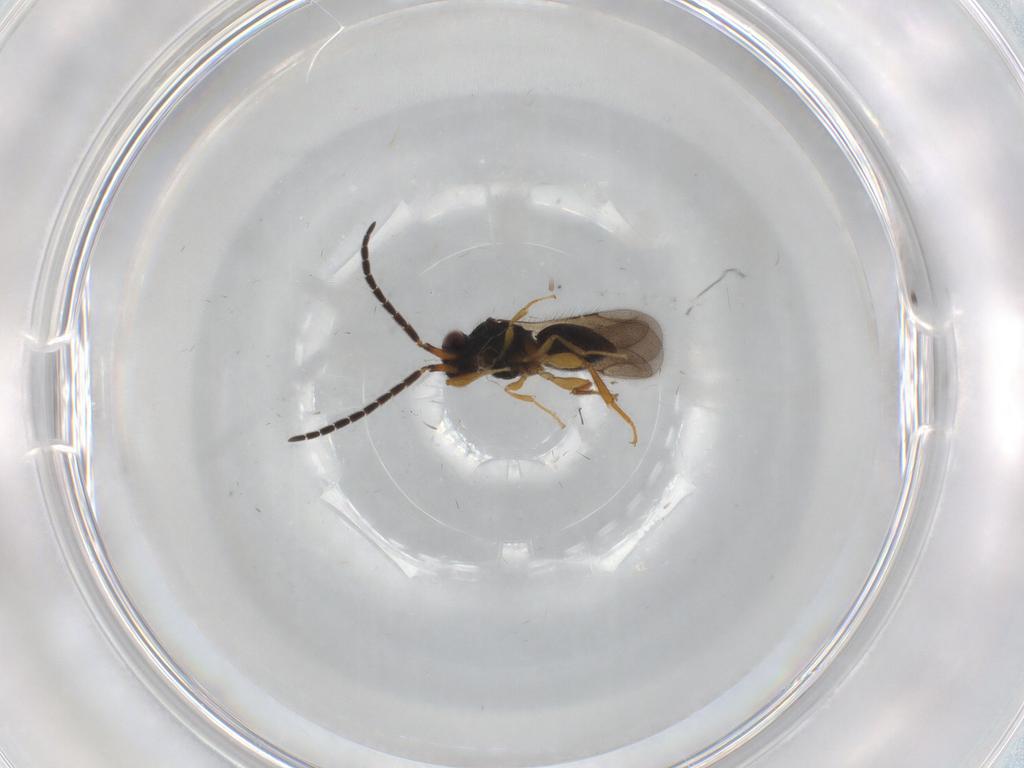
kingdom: Animalia
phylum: Arthropoda
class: Insecta
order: Hymenoptera
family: Formicidae
